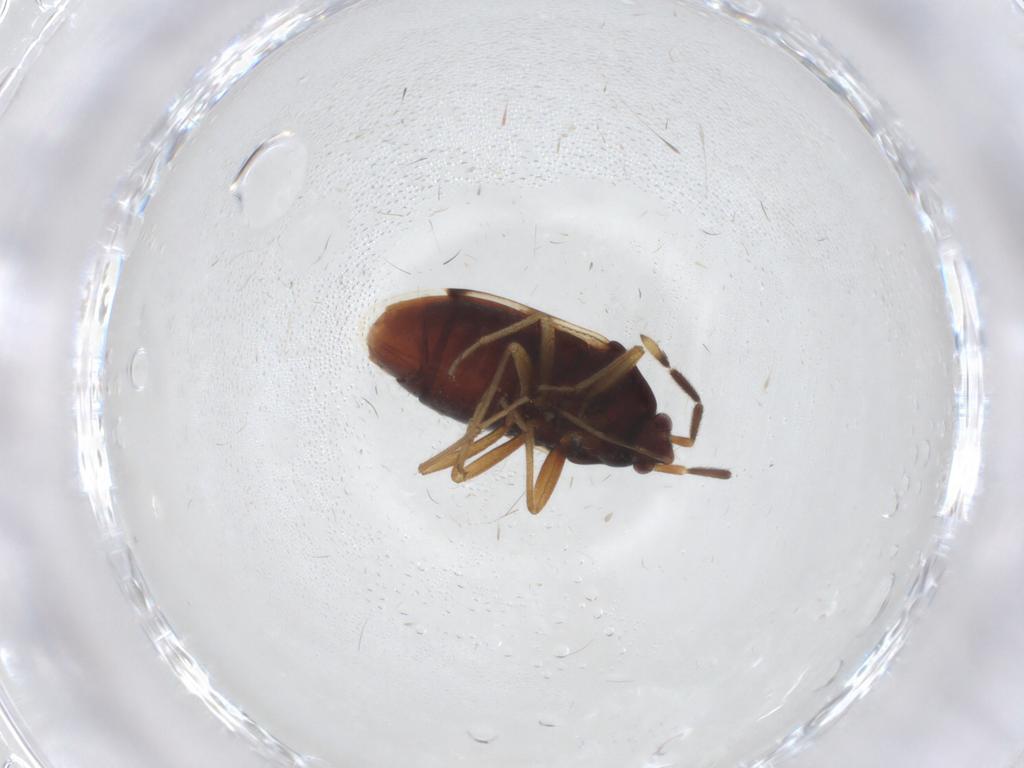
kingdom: Animalia
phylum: Arthropoda
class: Insecta
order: Hemiptera
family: Rhyparochromidae
